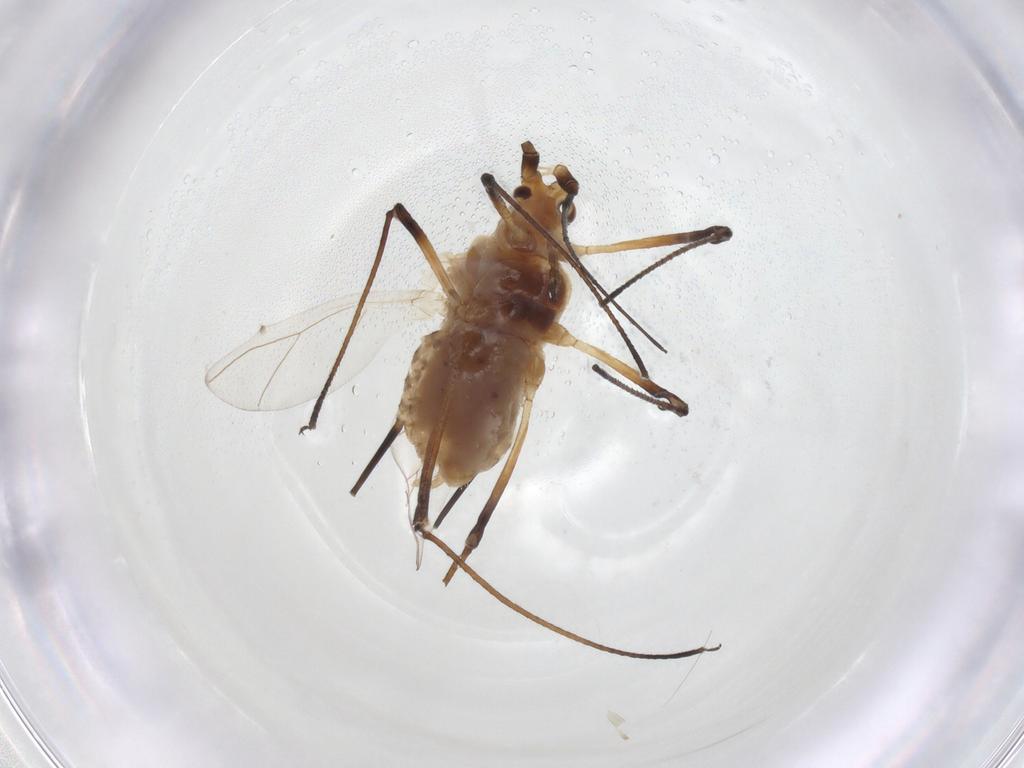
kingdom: Animalia
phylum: Arthropoda
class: Insecta
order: Hemiptera
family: Aphididae
